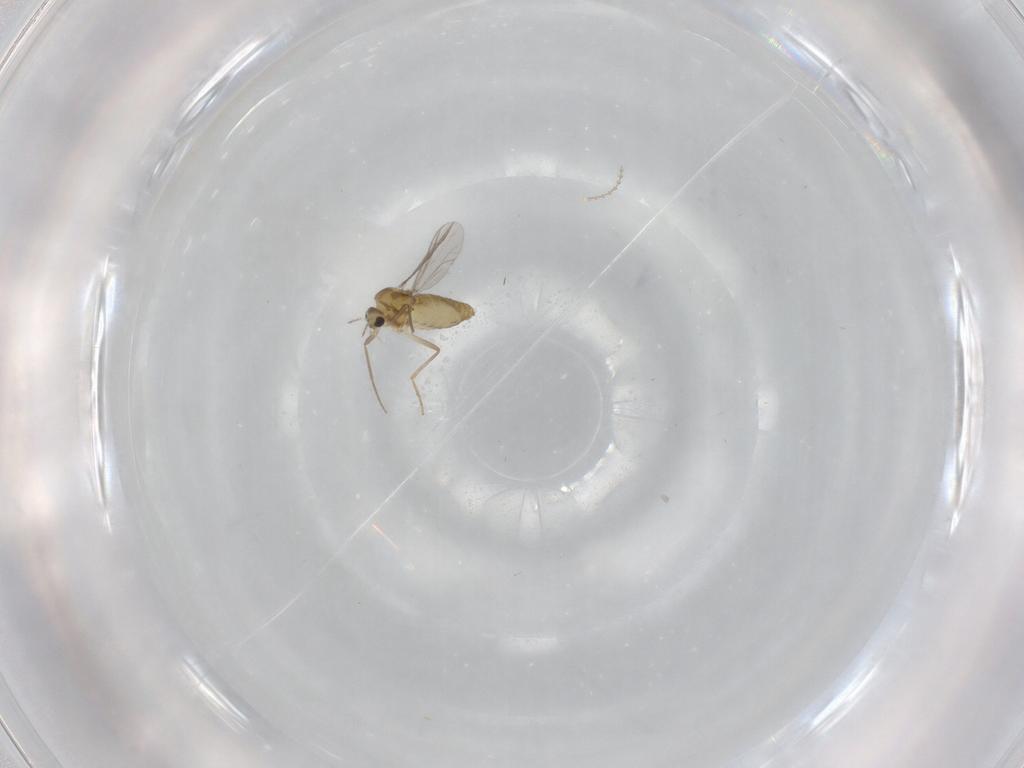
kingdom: Animalia
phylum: Arthropoda
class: Insecta
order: Diptera
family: Chironomidae
